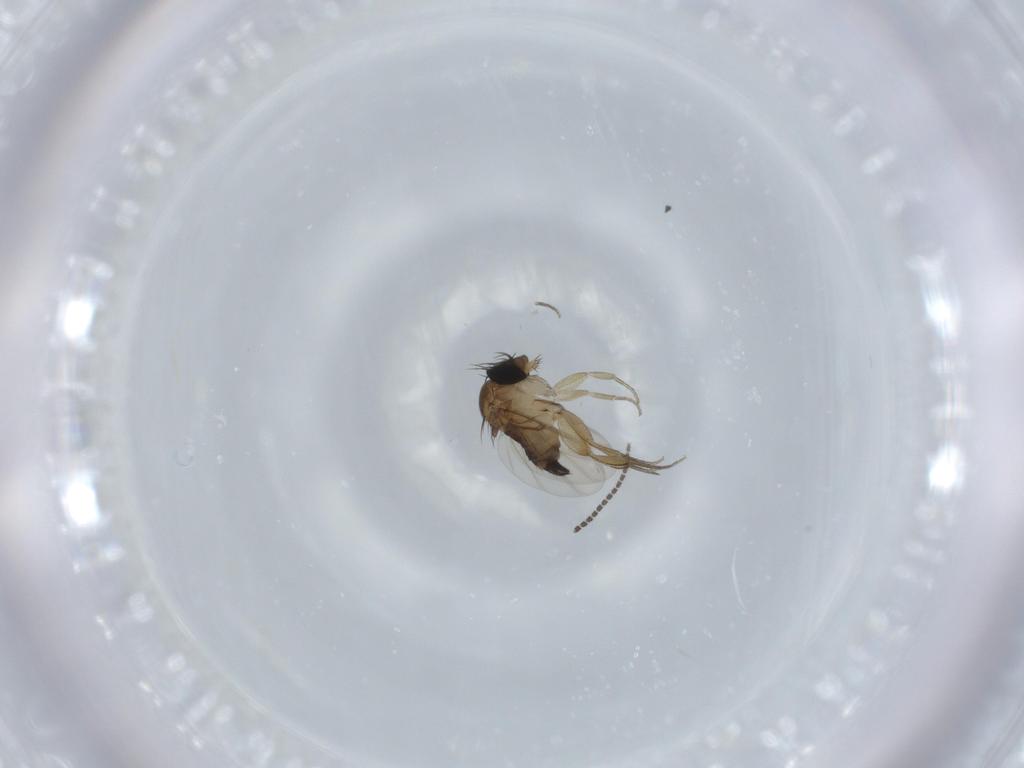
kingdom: Animalia
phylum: Arthropoda
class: Insecta
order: Diptera
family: Phoridae
